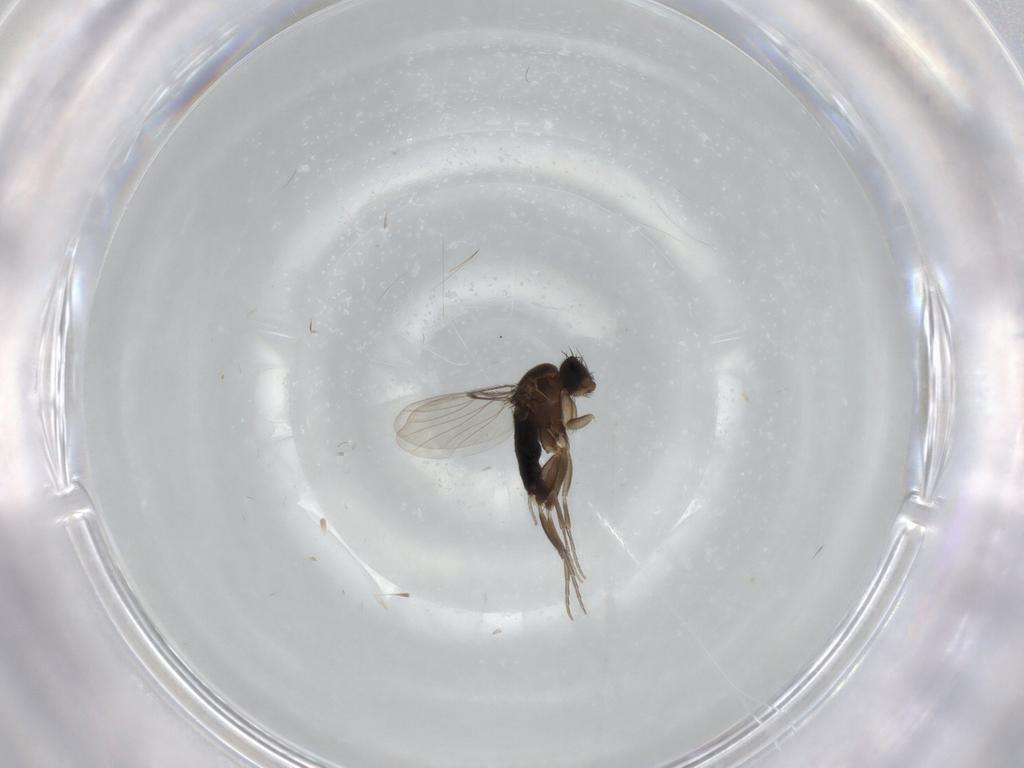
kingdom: Animalia
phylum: Arthropoda
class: Insecta
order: Diptera
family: Phoridae
